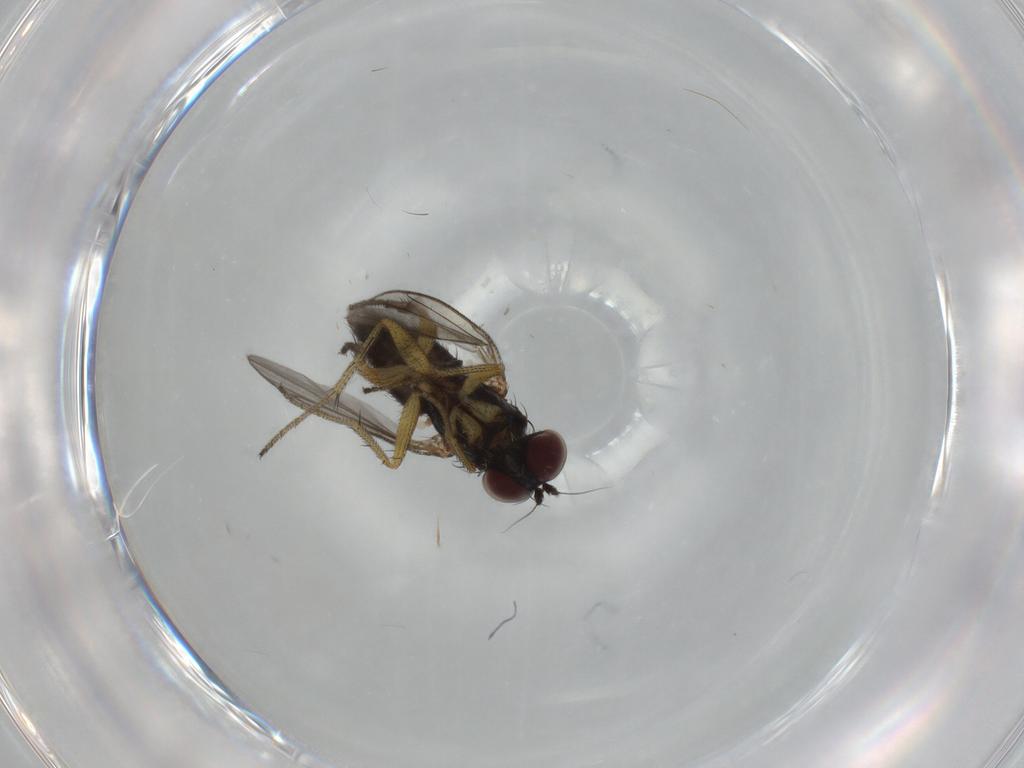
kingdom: Animalia
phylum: Arthropoda
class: Insecta
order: Diptera
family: Dolichopodidae
